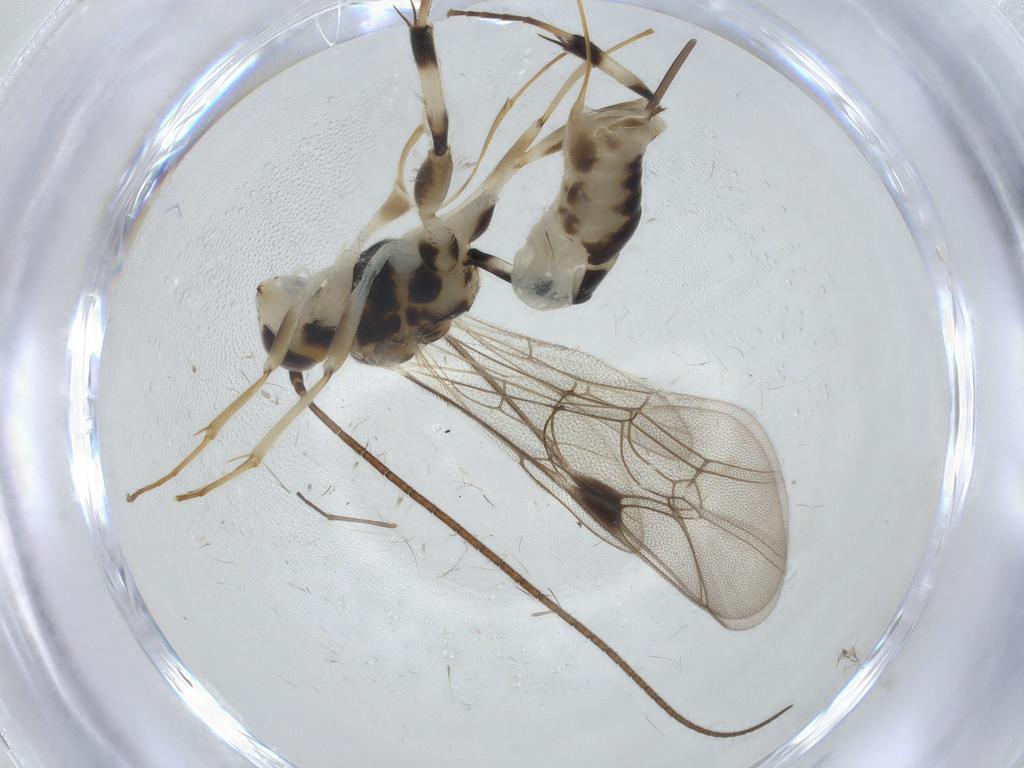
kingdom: Animalia
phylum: Arthropoda
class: Insecta
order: Hymenoptera
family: Ichneumonidae
